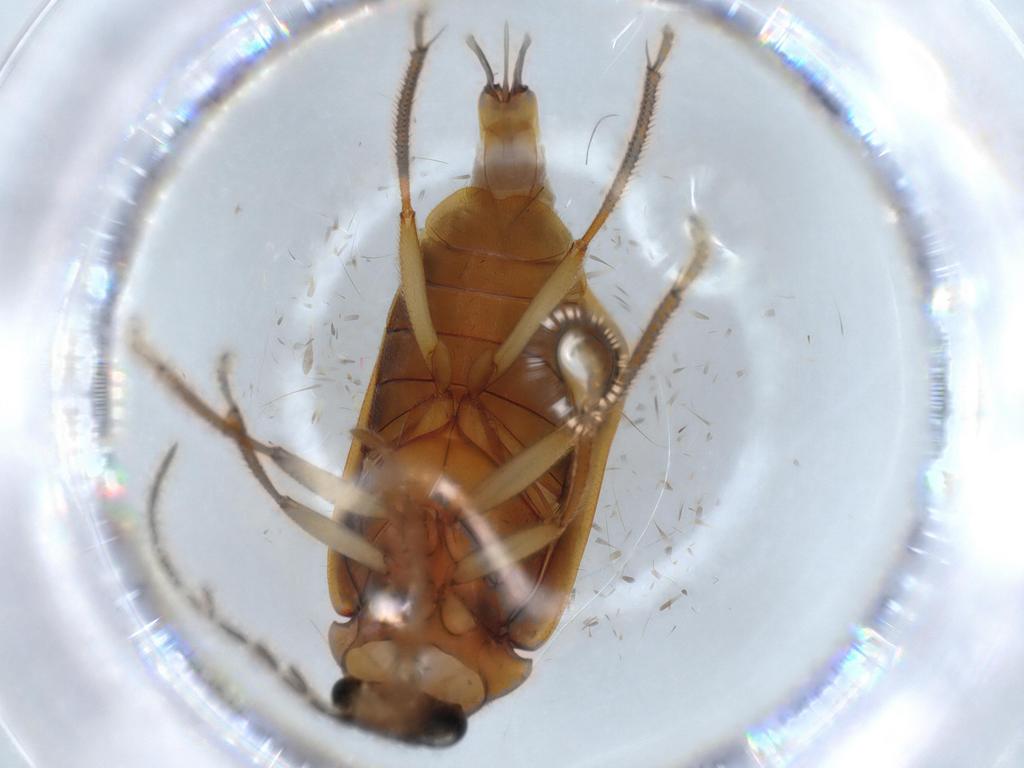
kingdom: Animalia
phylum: Arthropoda
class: Insecta
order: Coleoptera
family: Ptilodactylidae
